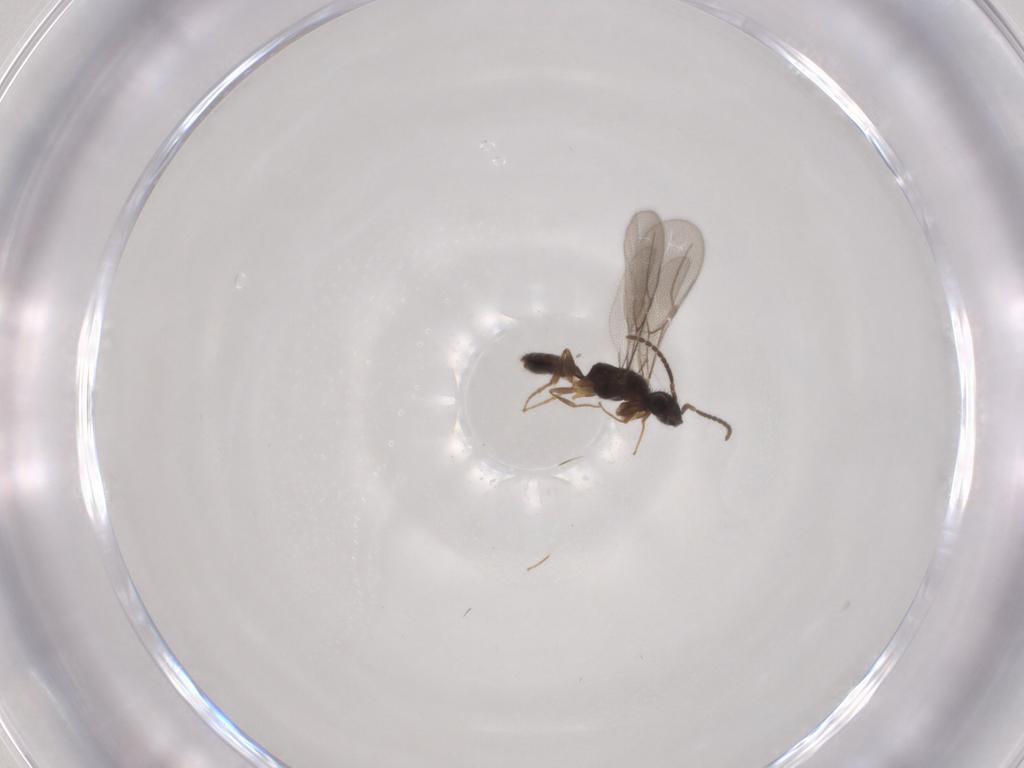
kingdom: Animalia
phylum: Arthropoda
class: Insecta
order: Hymenoptera
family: Bethylidae
